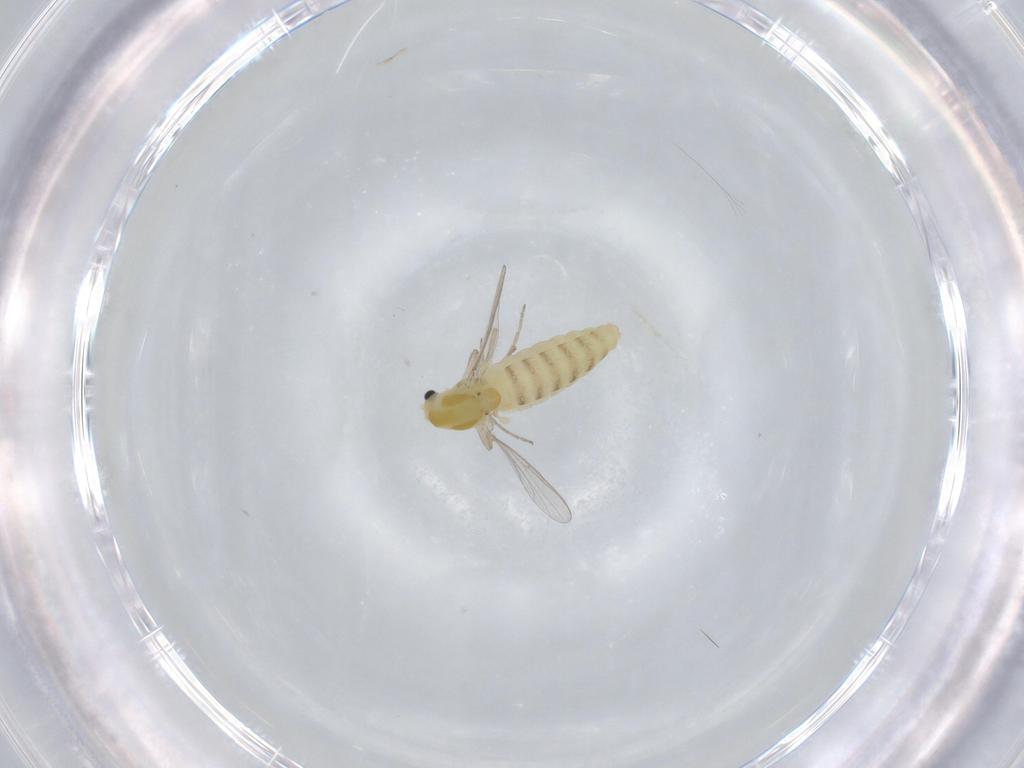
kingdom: Animalia
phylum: Arthropoda
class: Insecta
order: Diptera
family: Chironomidae
